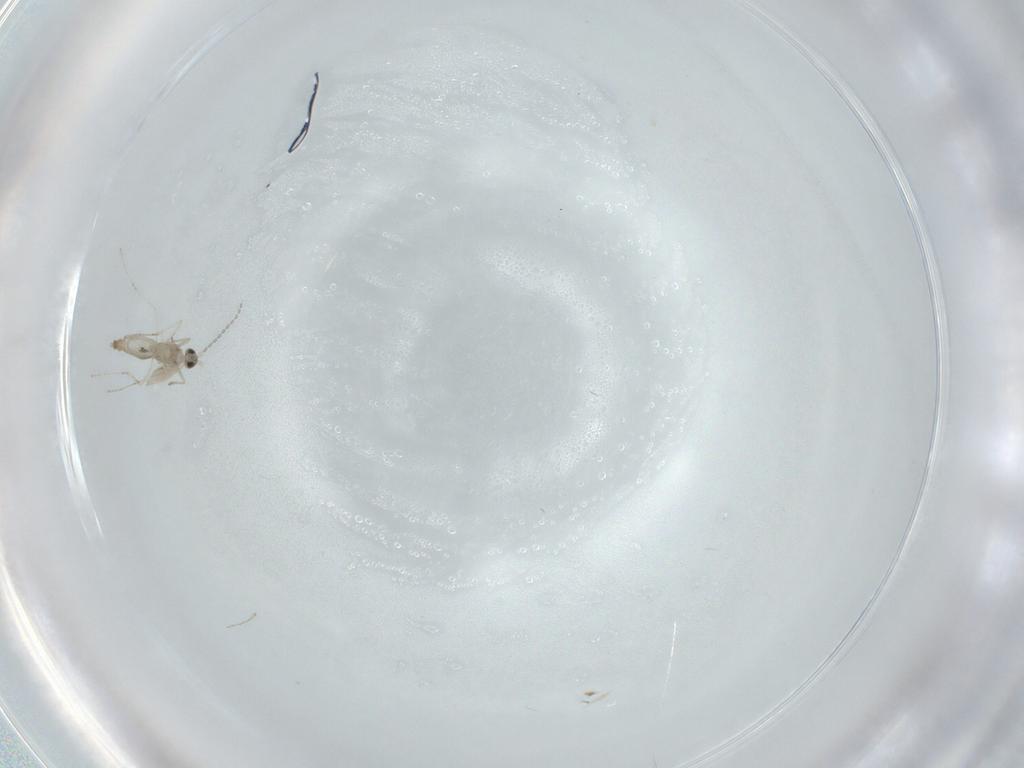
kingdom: Animalia
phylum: Arthropoda
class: Insecta
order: Diptera
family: Cecidomyiidae
